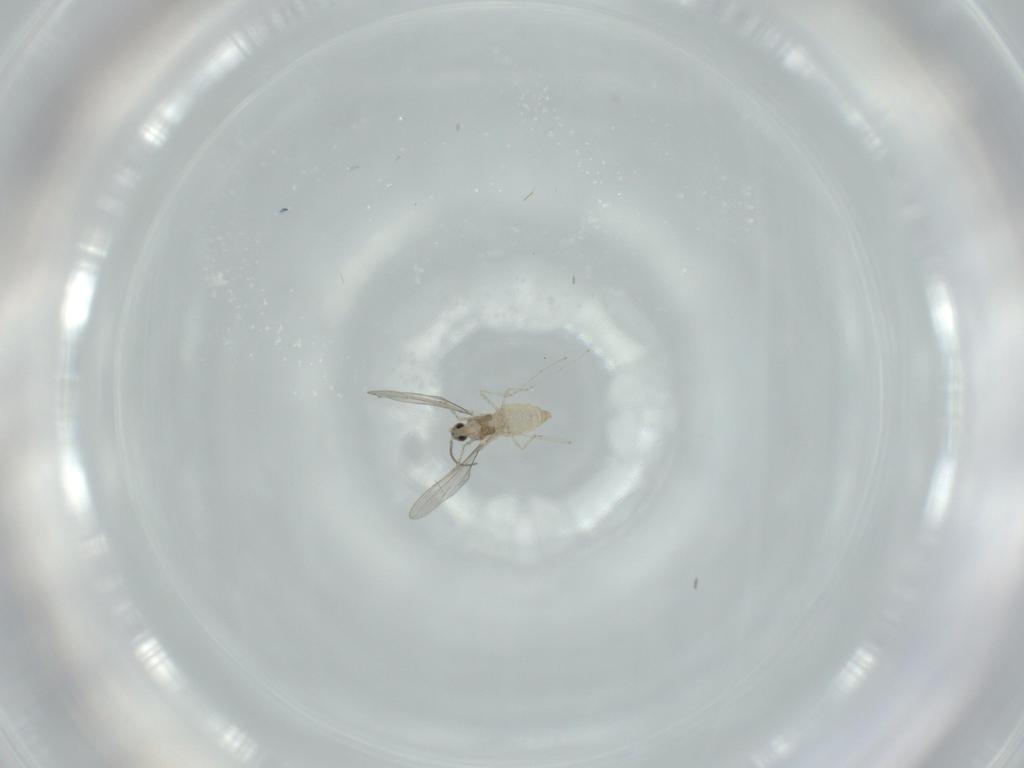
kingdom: Animalia
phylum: Arthropoda
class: Insecta
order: Diptera
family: Cecidomyiidae
